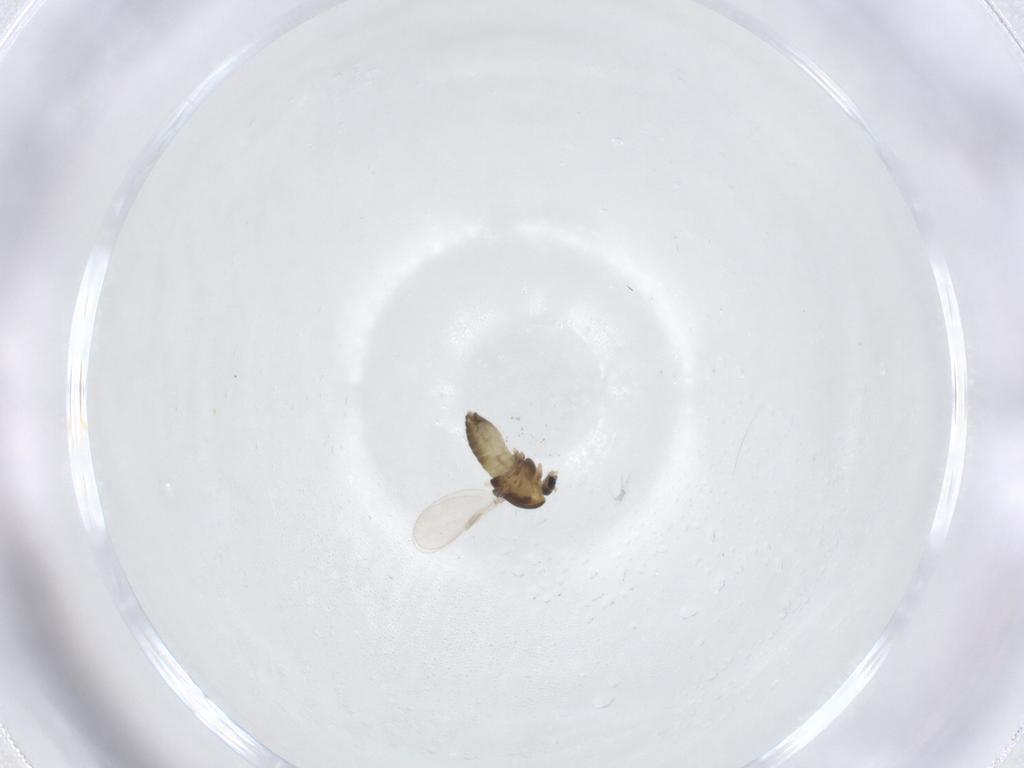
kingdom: Animalia
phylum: Arthropoda
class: Insecta
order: Diptera
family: Chironomidae
